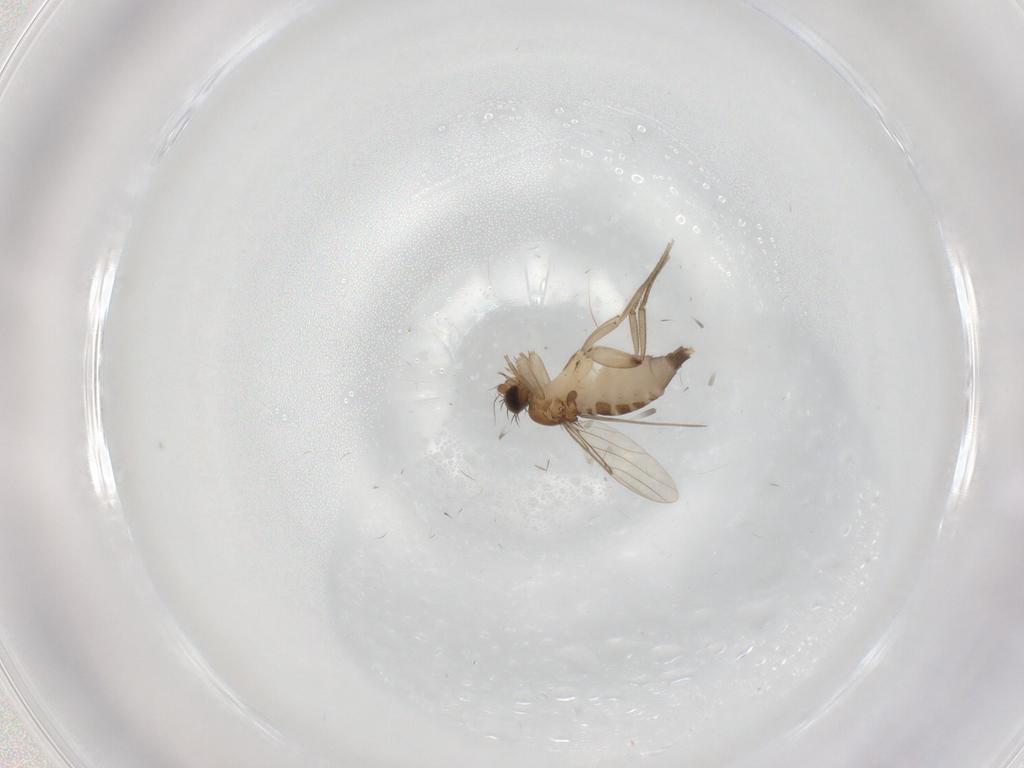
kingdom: Animalia
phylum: Arthropoda
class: Insecta
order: Diptera
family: Phoridae
